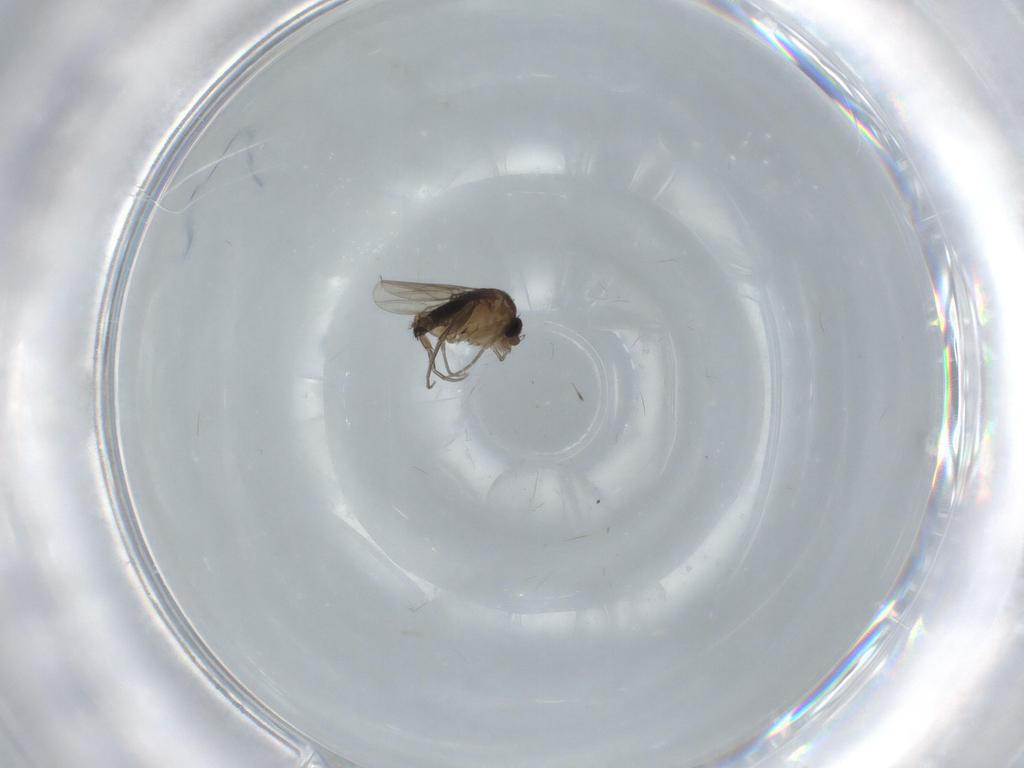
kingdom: Animalia
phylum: Arthropoda
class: Insecta
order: Diptera
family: Phoridae
